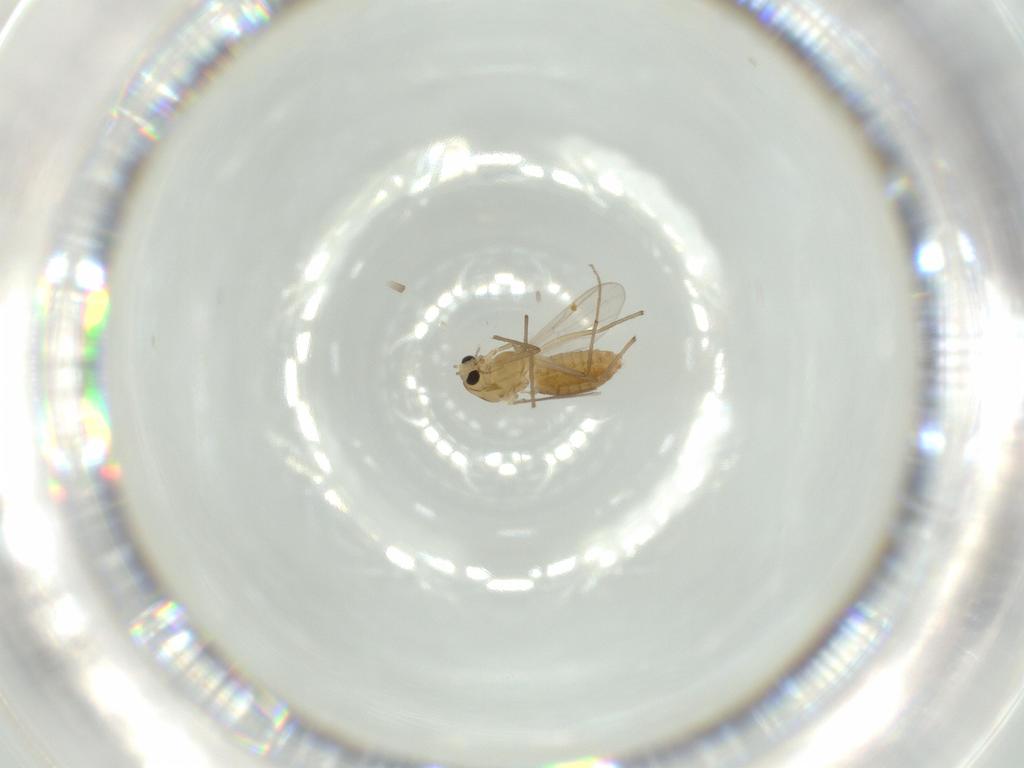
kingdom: Animalia
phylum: Arthropoda
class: Insecta
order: Diptera
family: Chironomidae
